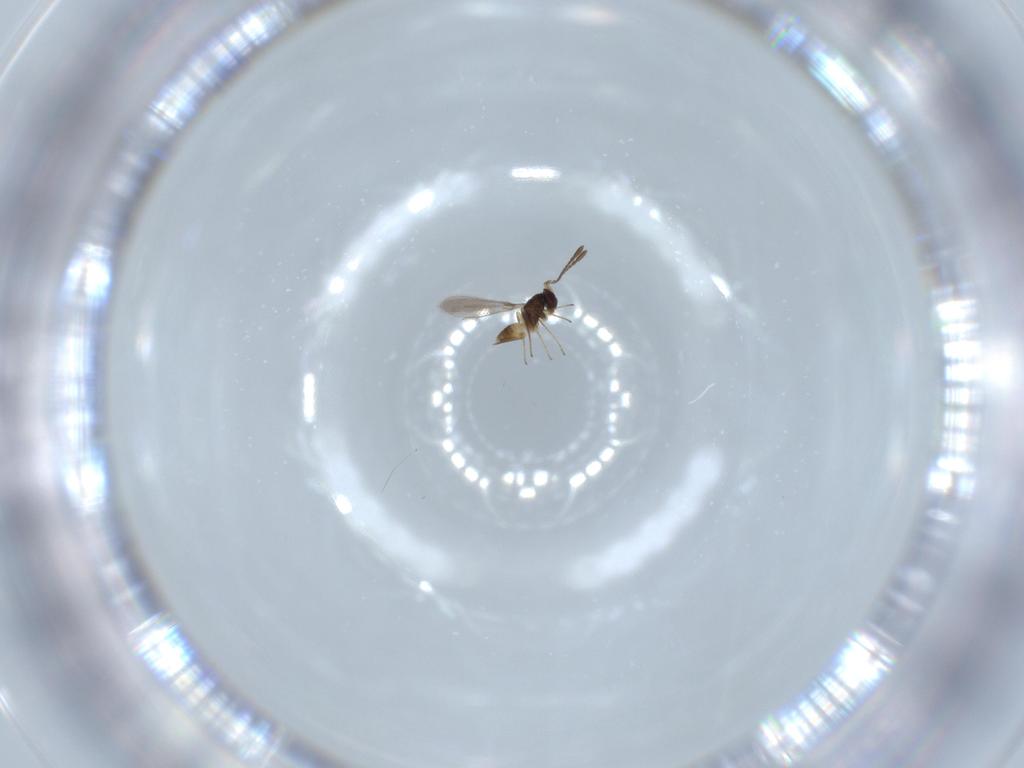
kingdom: Animalia
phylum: Arthropoda
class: Insecta
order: Hymenoptera
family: Mymaridae
